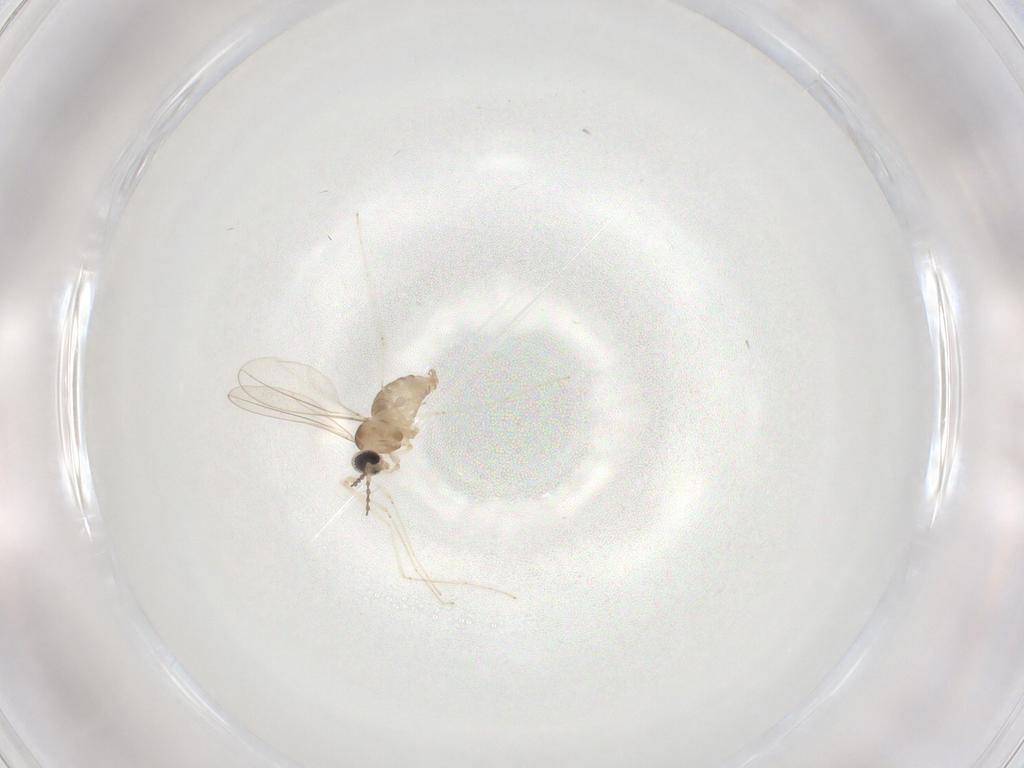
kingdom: Animalia
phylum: Arthropoda
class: Insecta
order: Diptera
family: Cecidomyiidae
